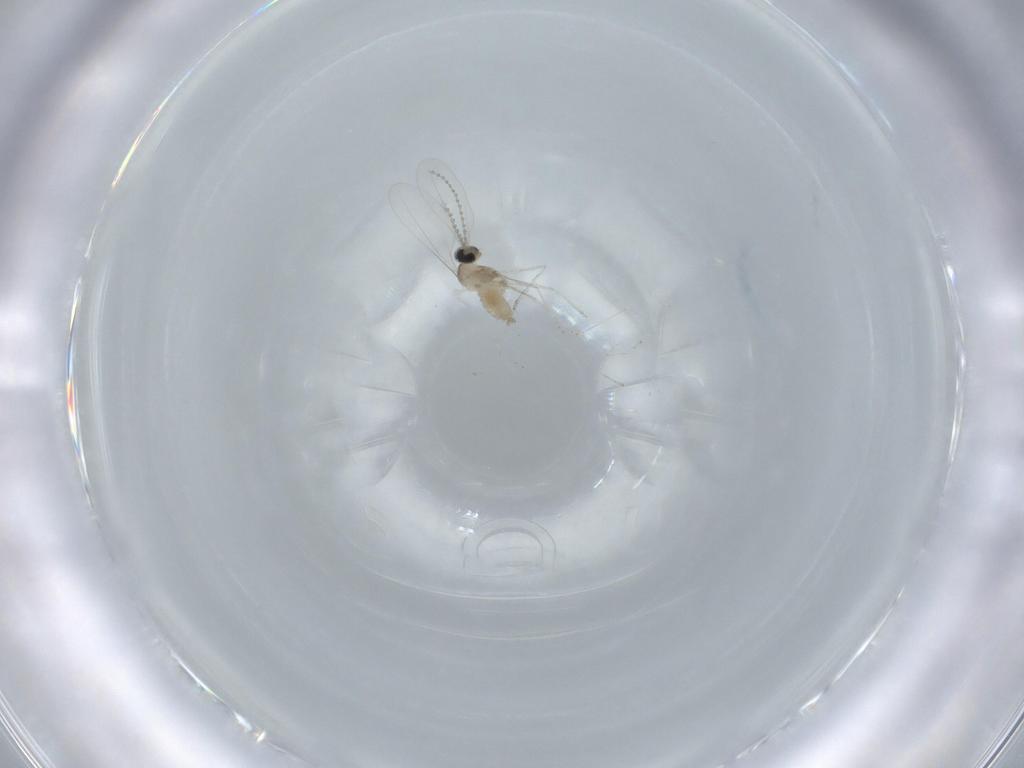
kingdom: Animalia
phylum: Arthropoda
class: Insecta
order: Diptera
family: Cecidomyiidae
